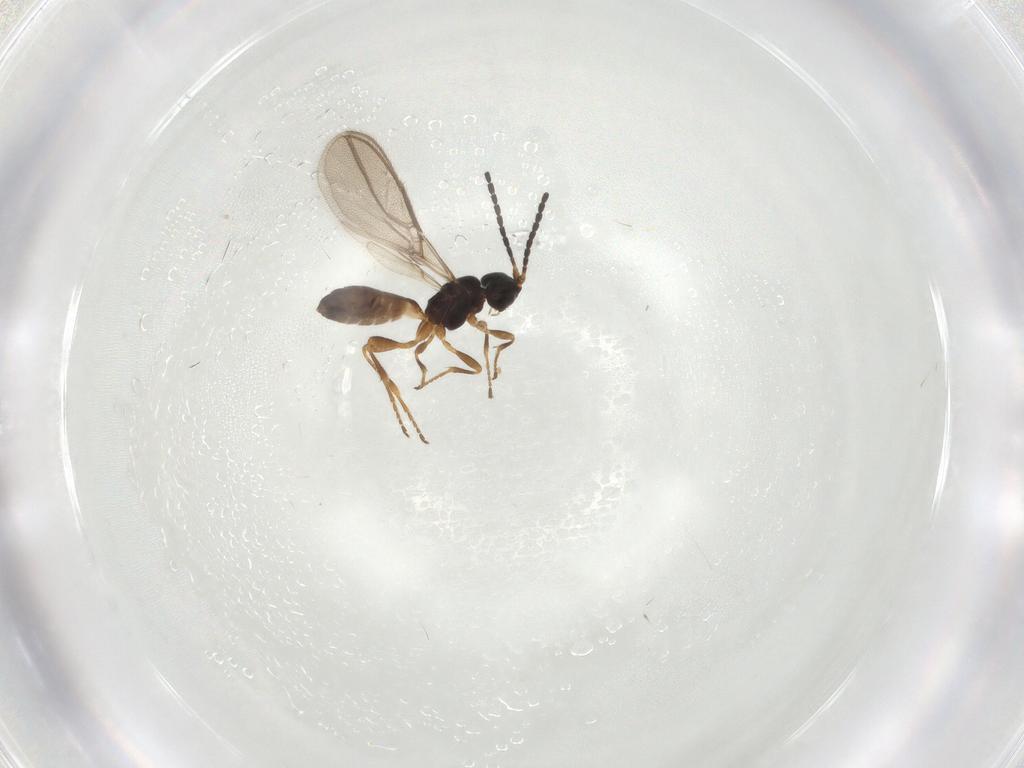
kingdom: Animalia
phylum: Arthropoda
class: Insecta
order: Hymenoptera
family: Braconidae
